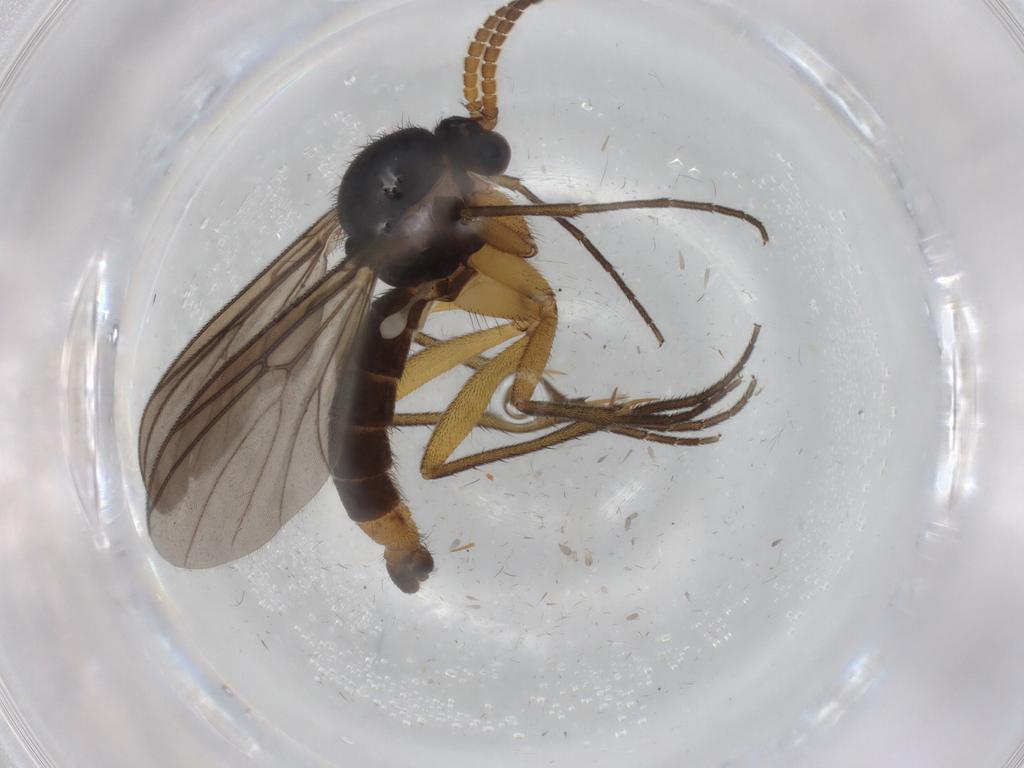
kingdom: Animalia
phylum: Arthropoda
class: Insecta
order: Diptera
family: Mycetophilidae
